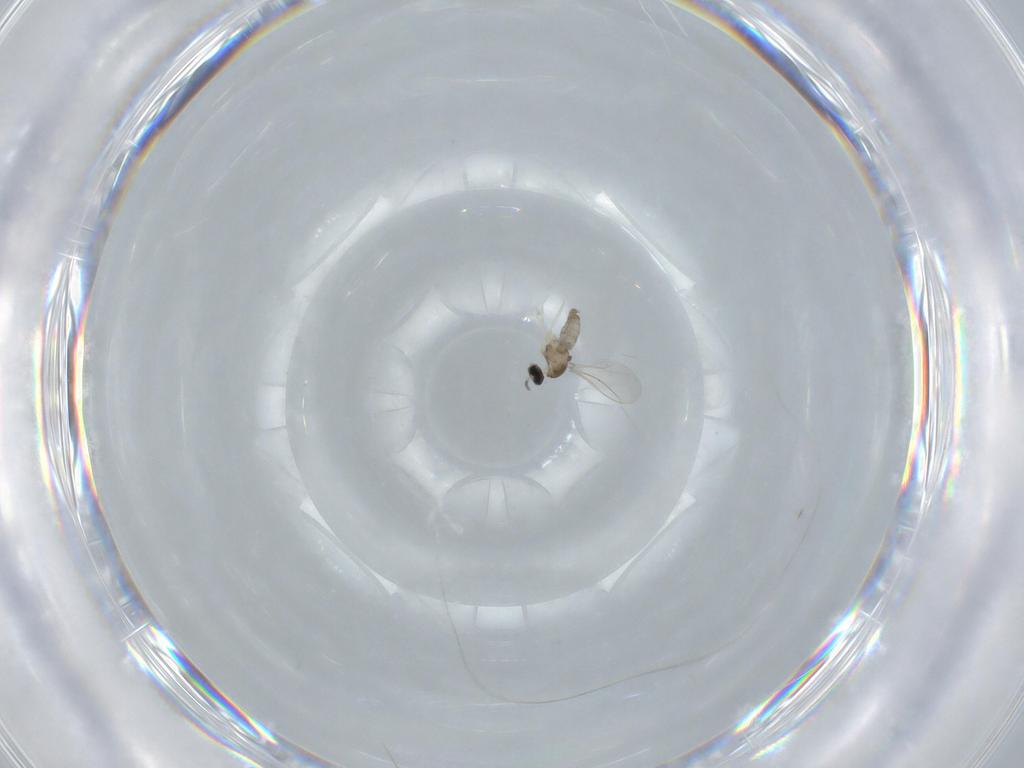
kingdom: Animalia
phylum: Arthropoda
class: Insecta
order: Diptera
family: Cecidomyiidae
